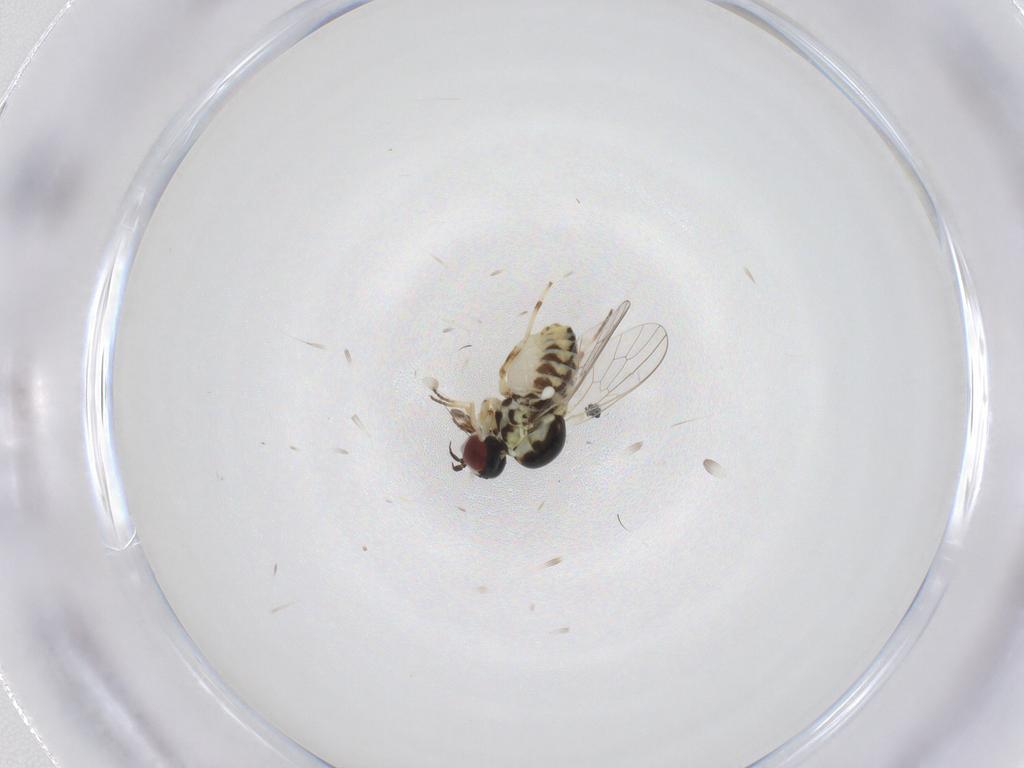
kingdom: Animalia
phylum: Arthropoda
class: Insecta
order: Diptera
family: Milichiidae
